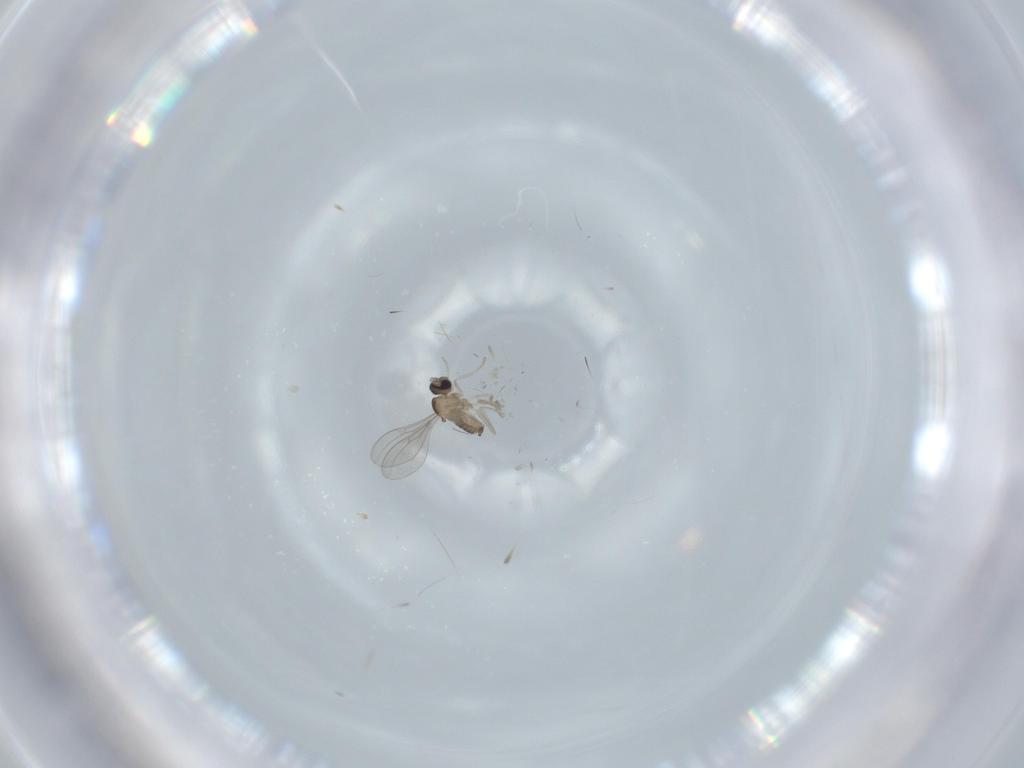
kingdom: Animalia
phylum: Arthropoda
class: Insecta
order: Diptera
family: Cecidomyiidae
